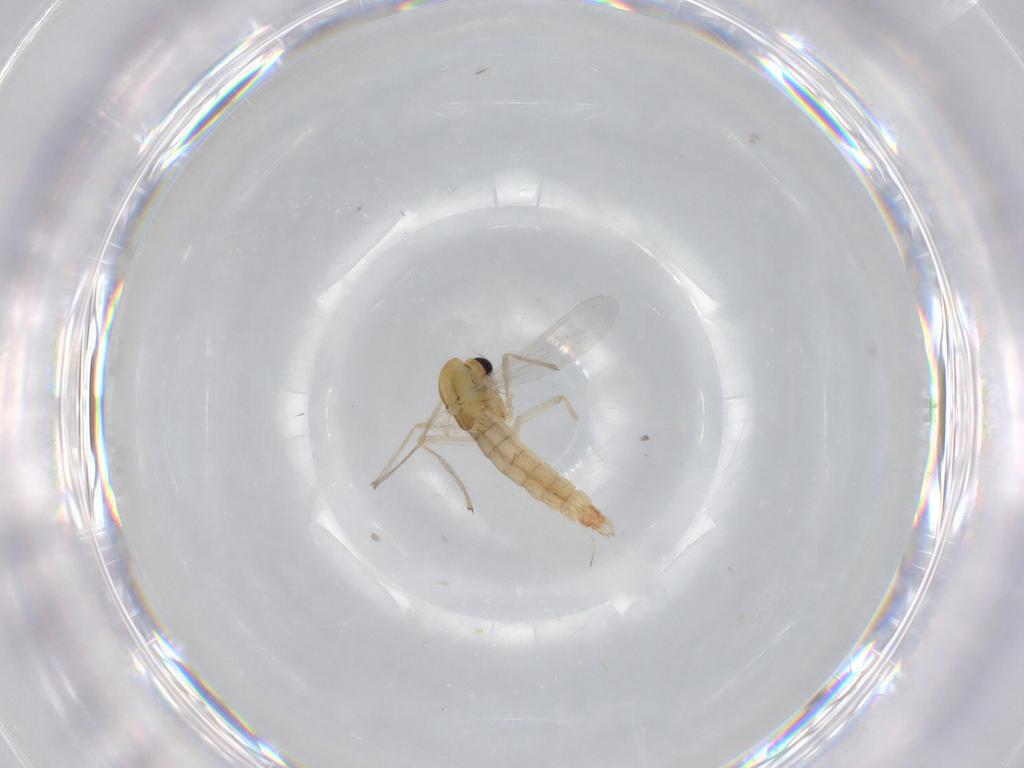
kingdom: Animalia
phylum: Arthropoda
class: Insecta
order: Diptera
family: Chironomidae
